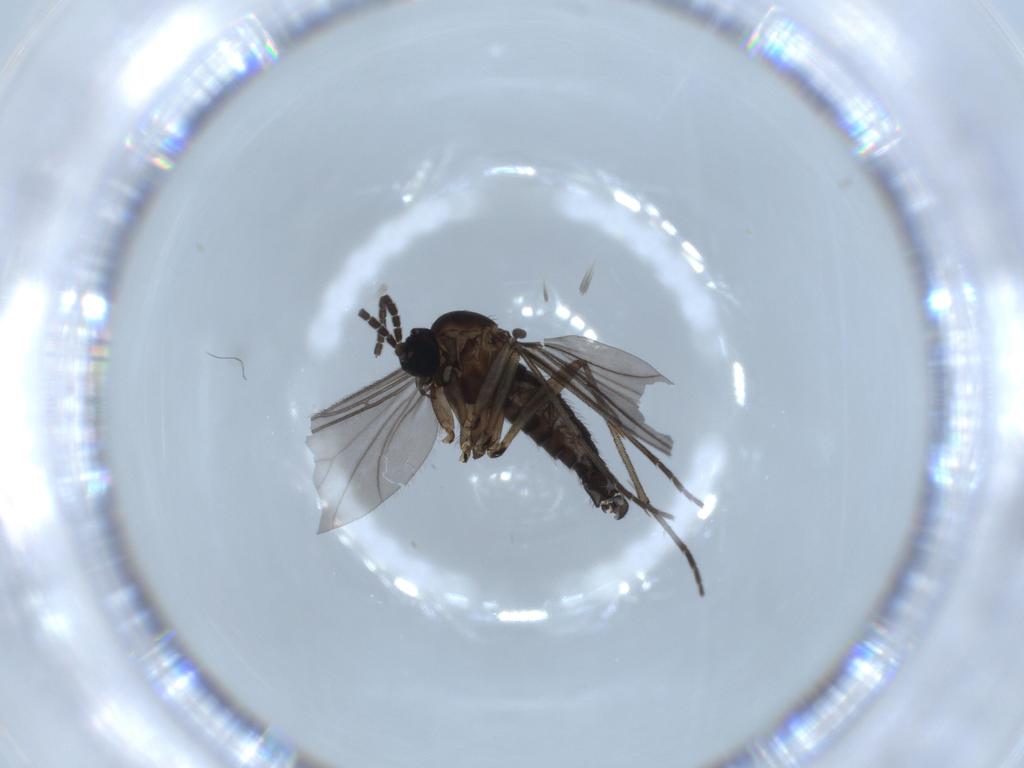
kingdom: Animalia
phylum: Arthropoda
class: Insecta
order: Diptera
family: Sciaridae
